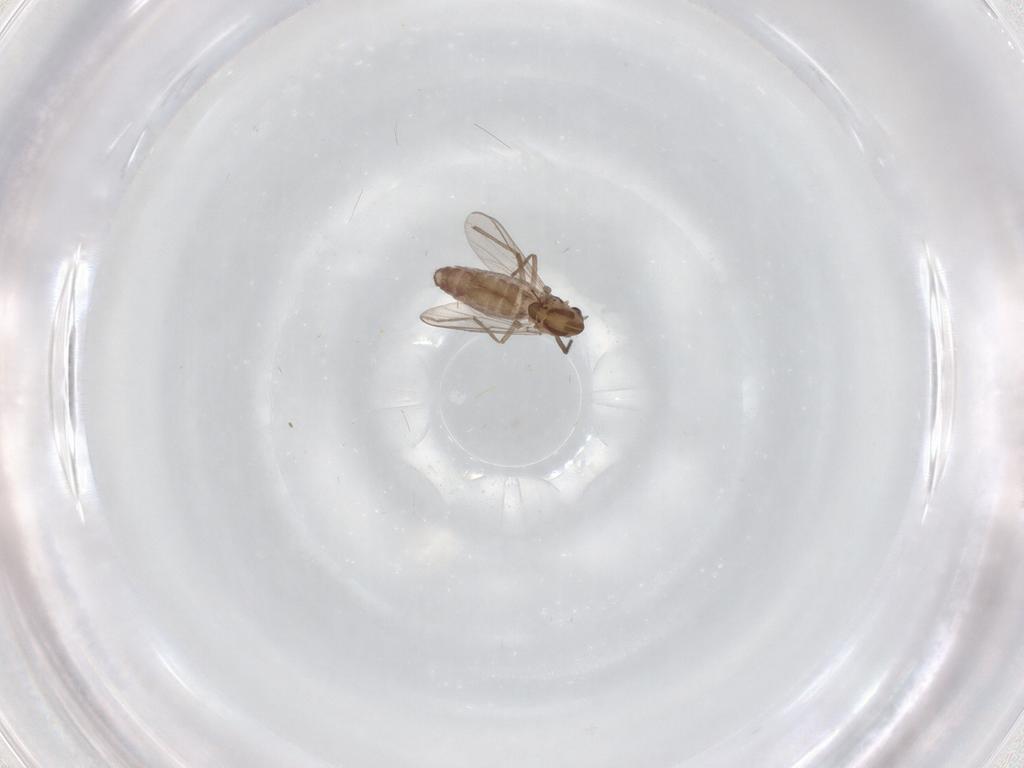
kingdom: Animalia
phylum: Arthropoda
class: Insecta
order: Diptera
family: Chironomidae
